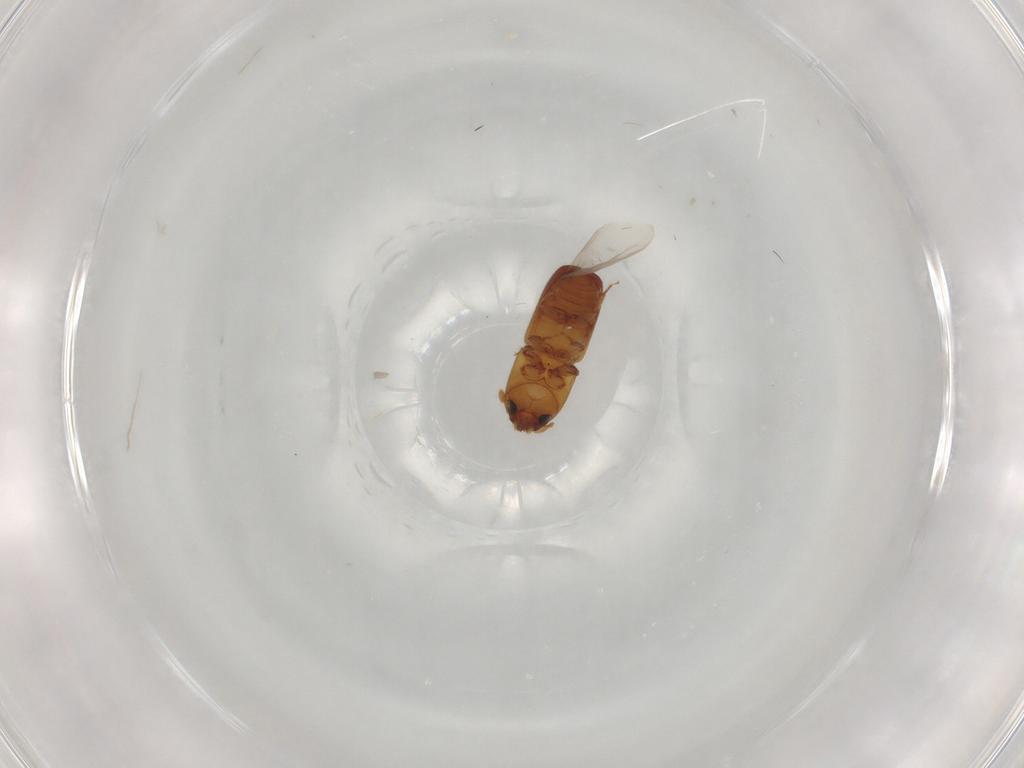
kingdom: Animalia
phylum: Arthropoda
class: Insecta
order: Coleoptera
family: Curculionidae
